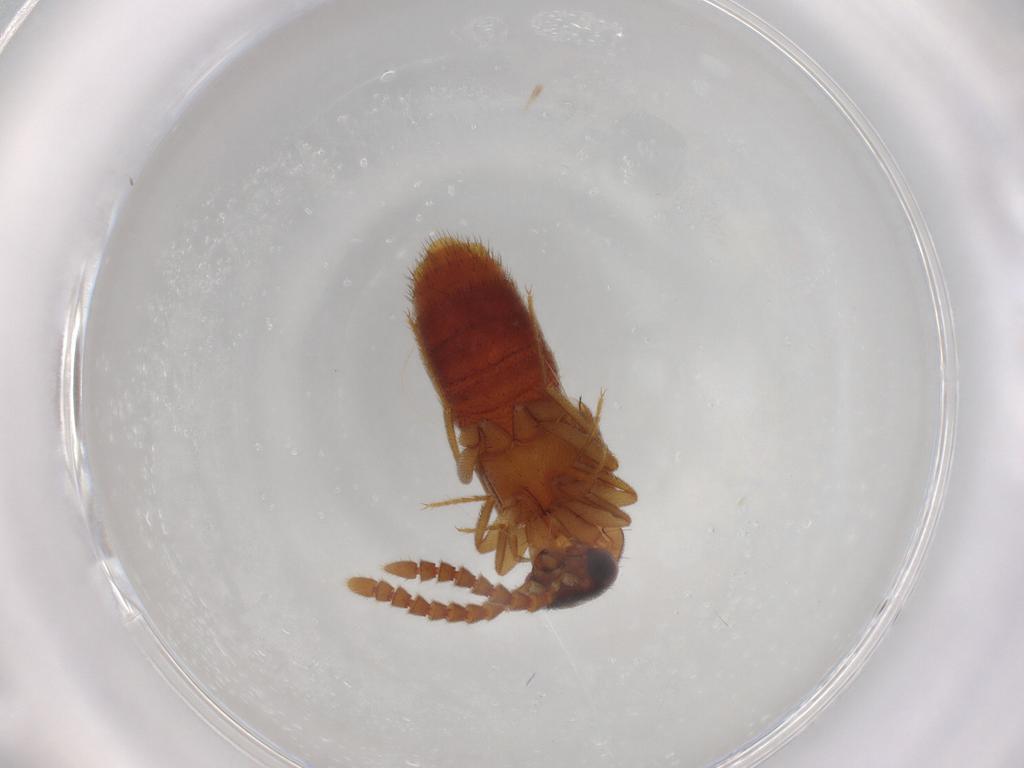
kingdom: Animalia
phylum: Arthropoda
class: Insecta
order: Coleoptera
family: Staphylinidae
